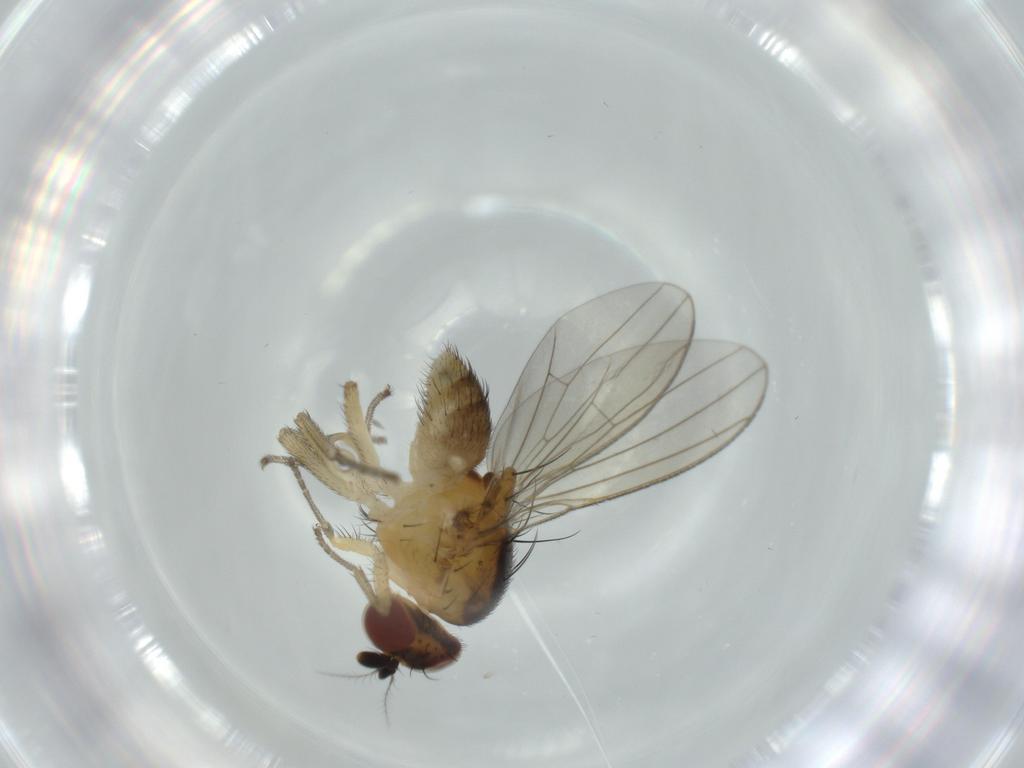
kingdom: Animalia
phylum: Arthropoda
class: Insecta
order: Diptera
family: Lauxaniidae
